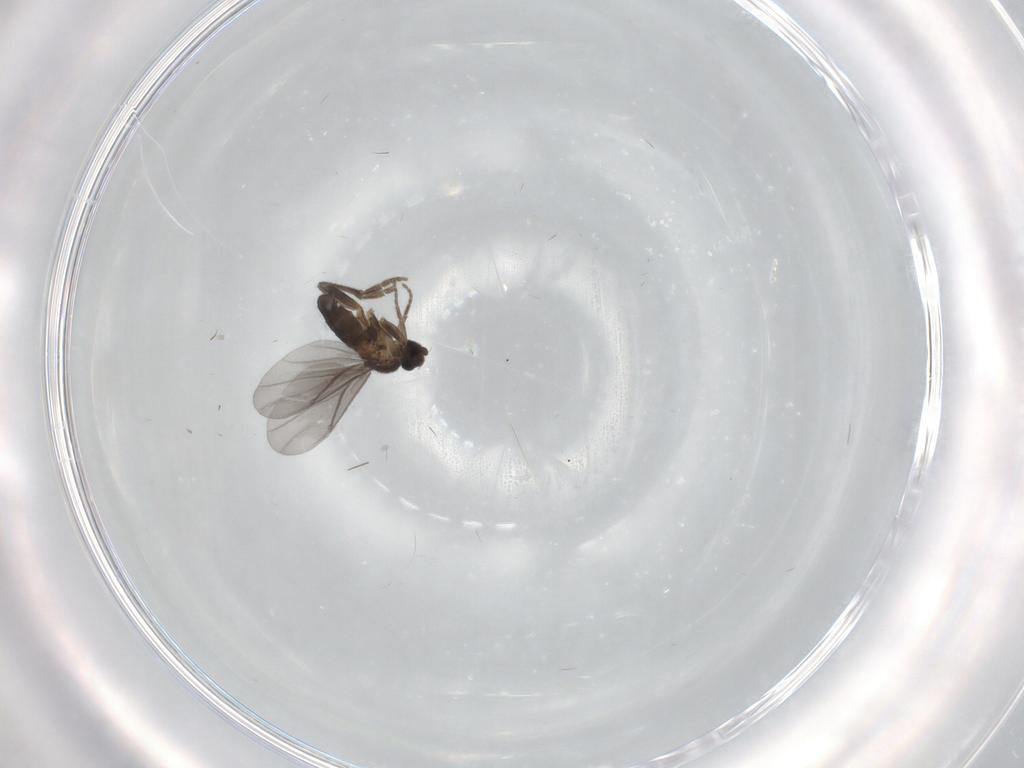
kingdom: Animalia
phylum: Arthropoda
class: Insecta
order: Diptera
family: Phoridae
